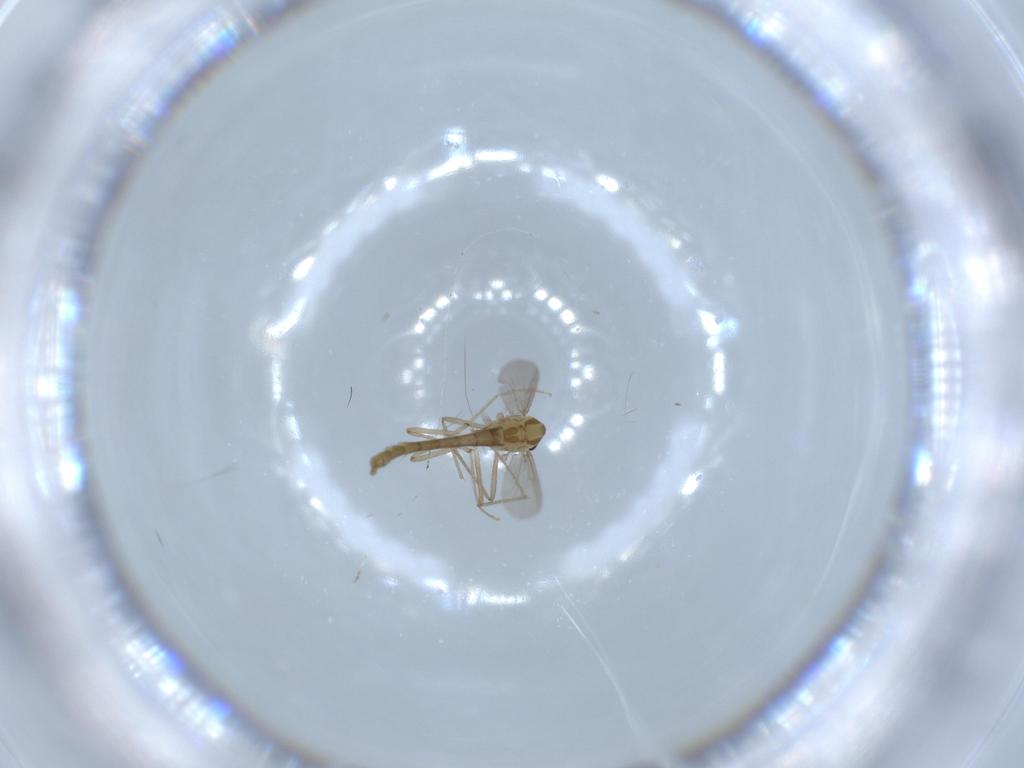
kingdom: Animalia
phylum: Arthropoda
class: Insecta
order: Diptera
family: Chironomidae
